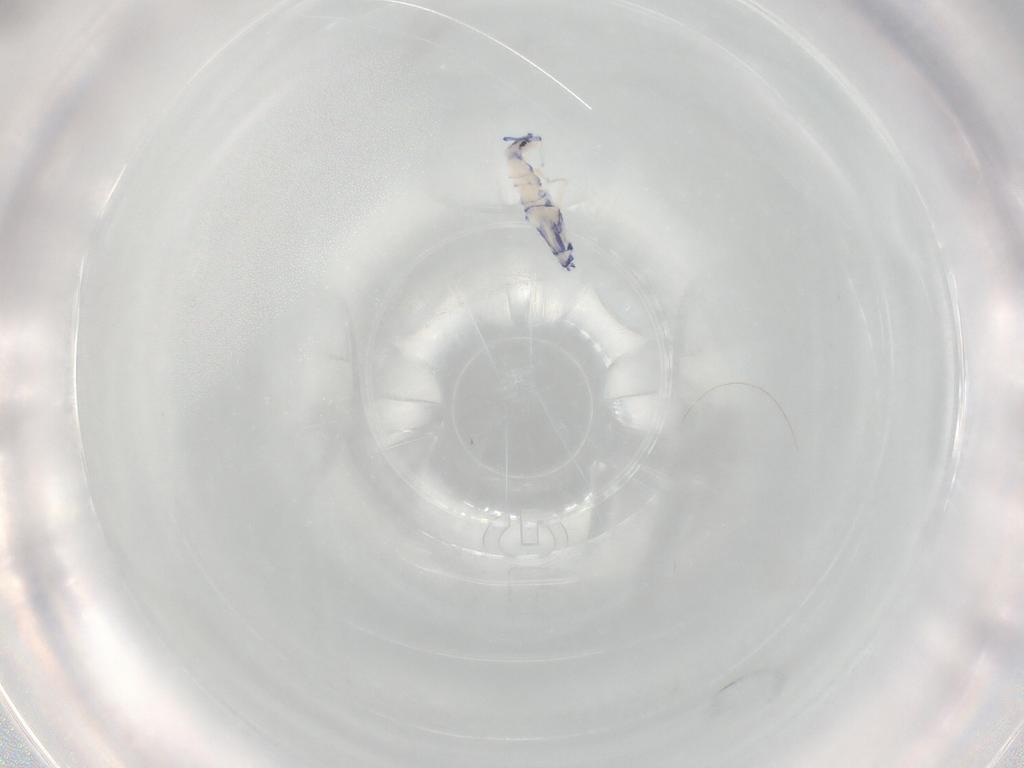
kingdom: Animalia
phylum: Arthropoda
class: Collembola
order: Entomobryomorpha
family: Entomobryidae
